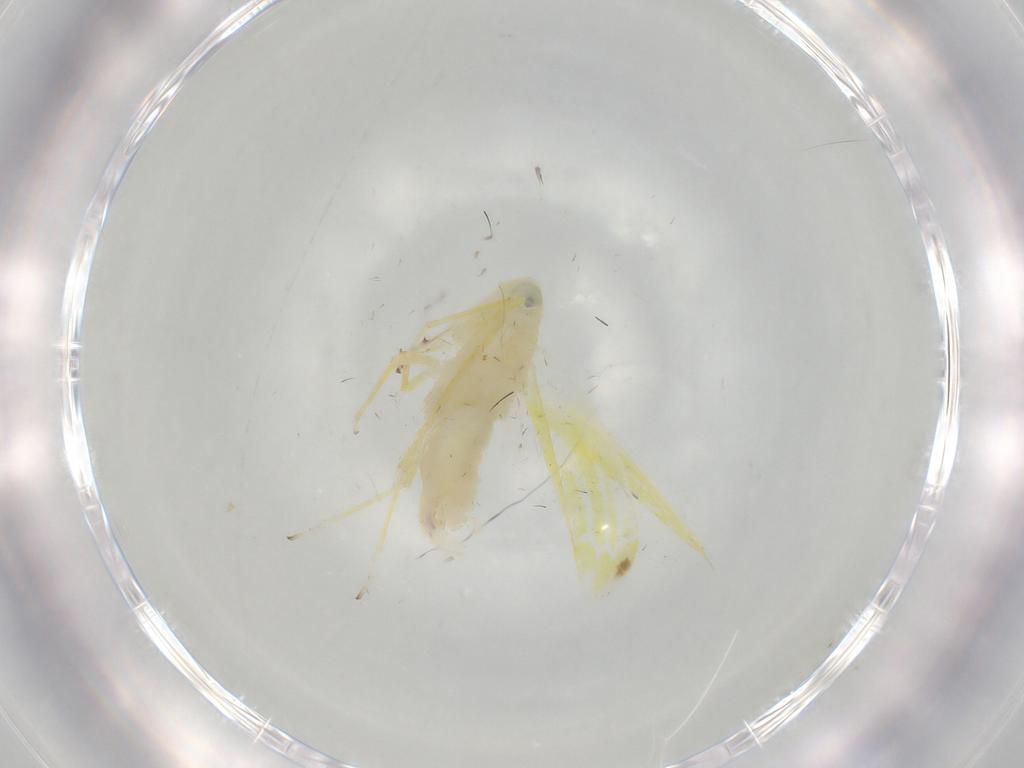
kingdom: Animalia
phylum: Arthropoda
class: Insecta
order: Hemiptera
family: Cicadellidae
